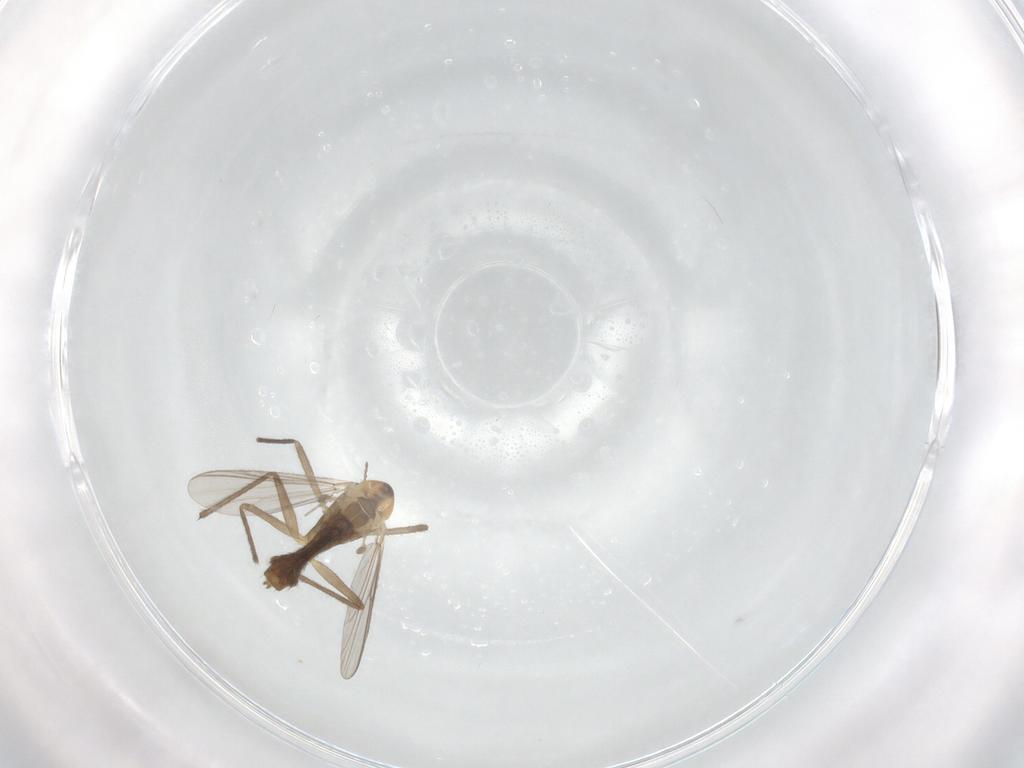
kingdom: Animalia
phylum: Arthropoda
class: Insecta
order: Diptera
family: Chironomidae
